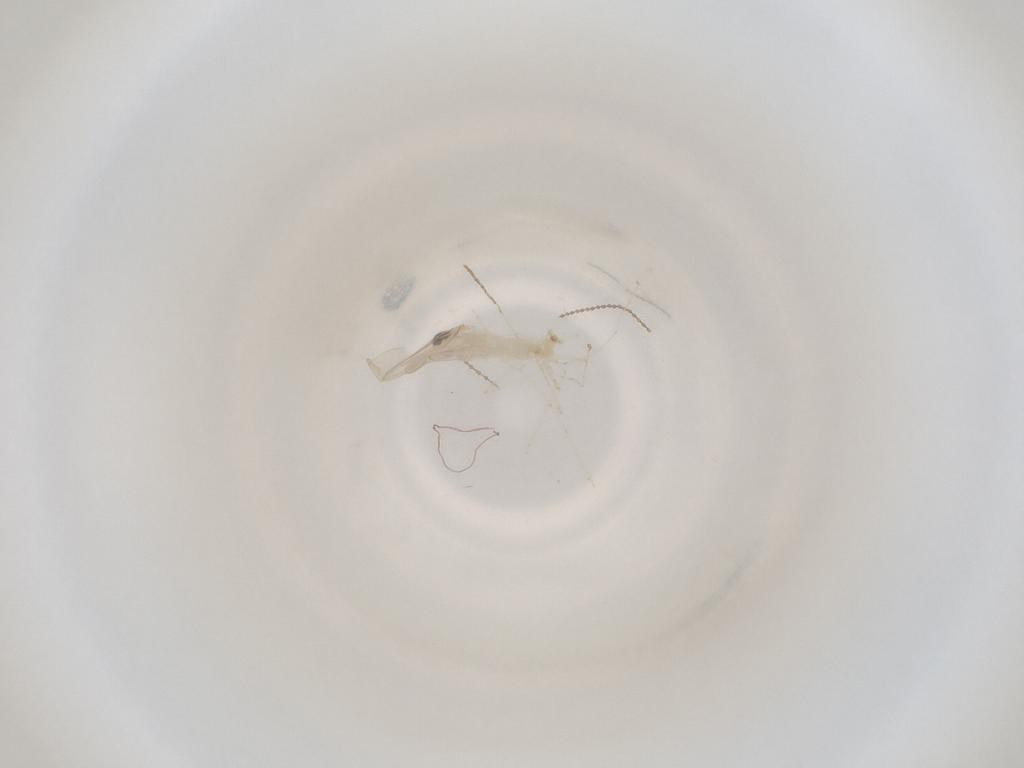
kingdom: Animalia
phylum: Arthropoda
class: Insecta
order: Diptera
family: Cecidomyiidae
